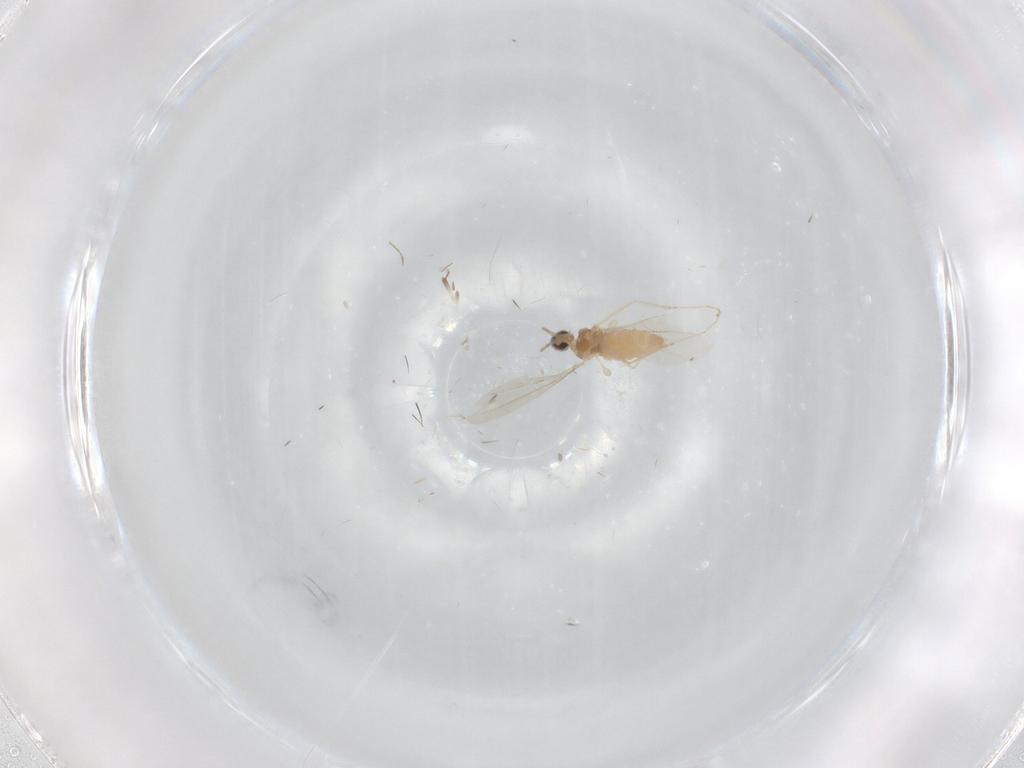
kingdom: Animalia
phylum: Arthropoda
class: Insecta
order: Diptera
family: Cecidomyiidae
